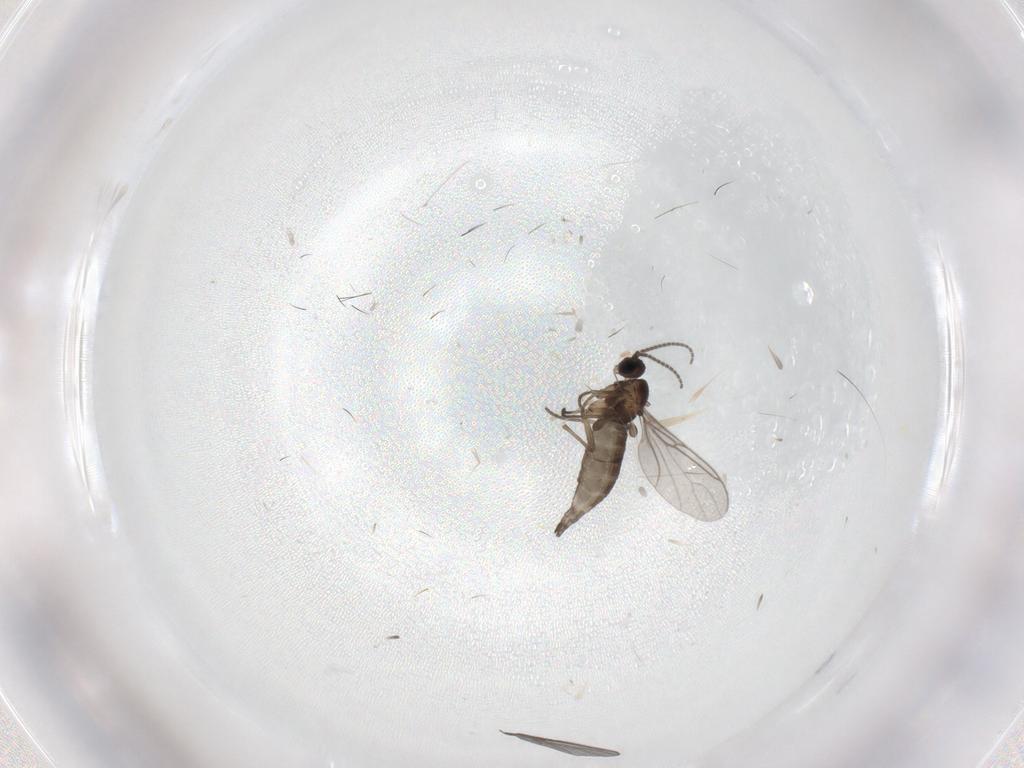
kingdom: Animalia
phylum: Arthropoda
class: Insecta
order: Diptera
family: Sciaridae
